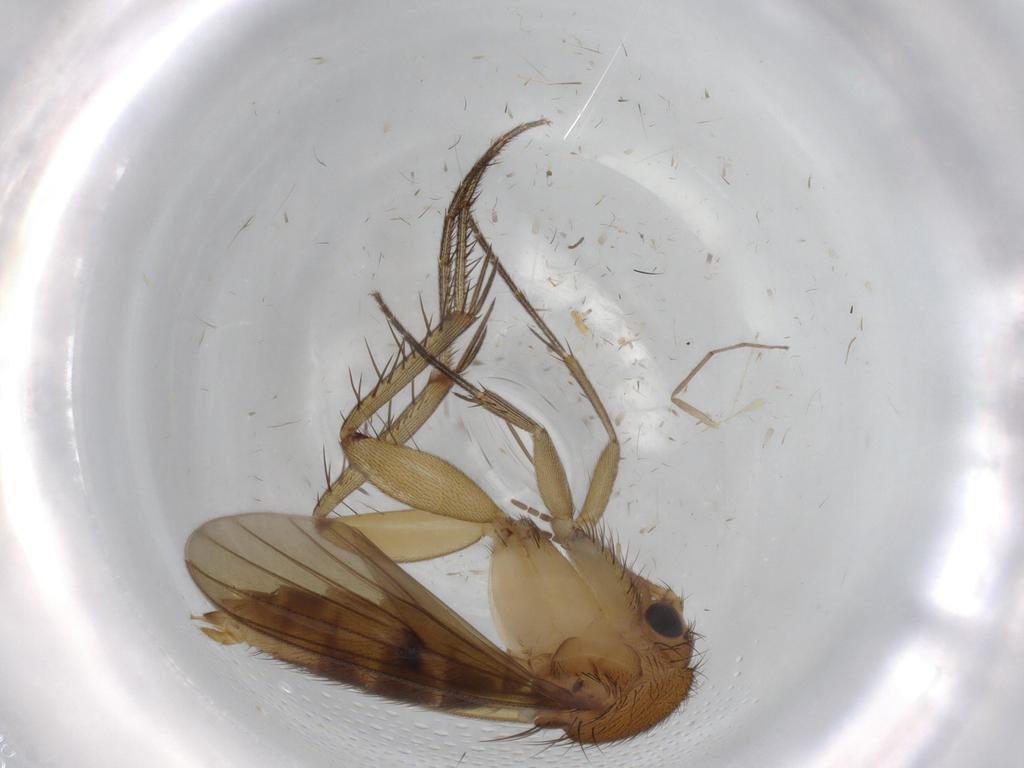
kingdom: Animalia
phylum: Arthropoda
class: Insecta
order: Diptera
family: Mycetophilidae
